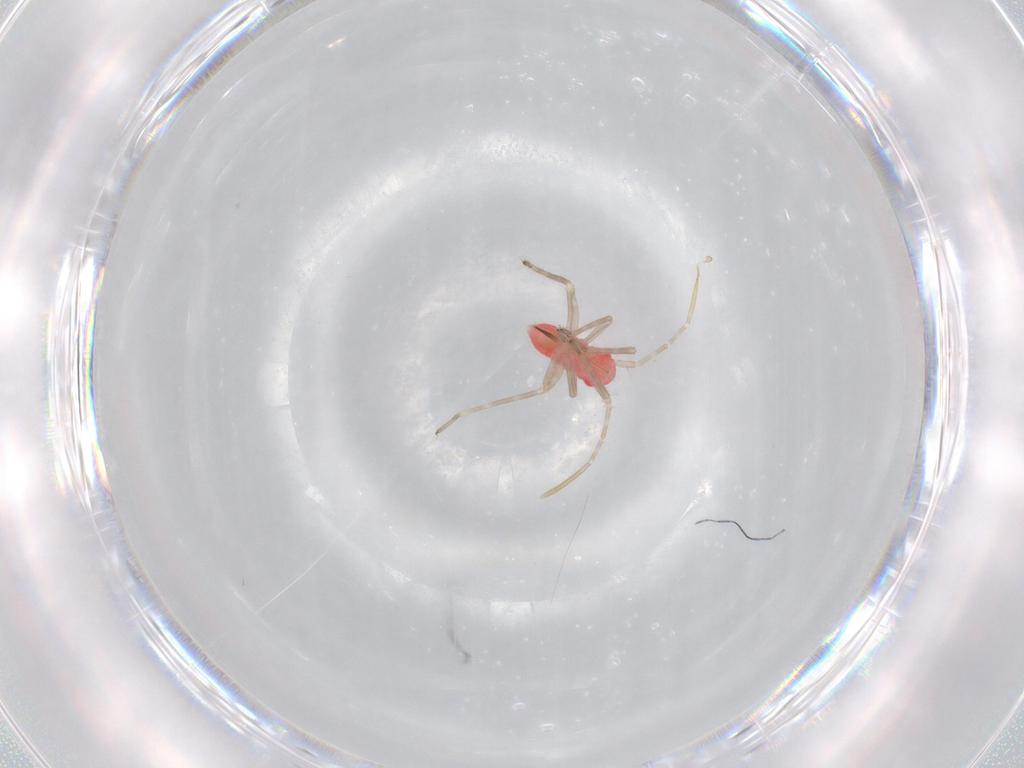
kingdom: Animalia
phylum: Arthropoda
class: Insecta
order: Hemiptera
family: Miridae
